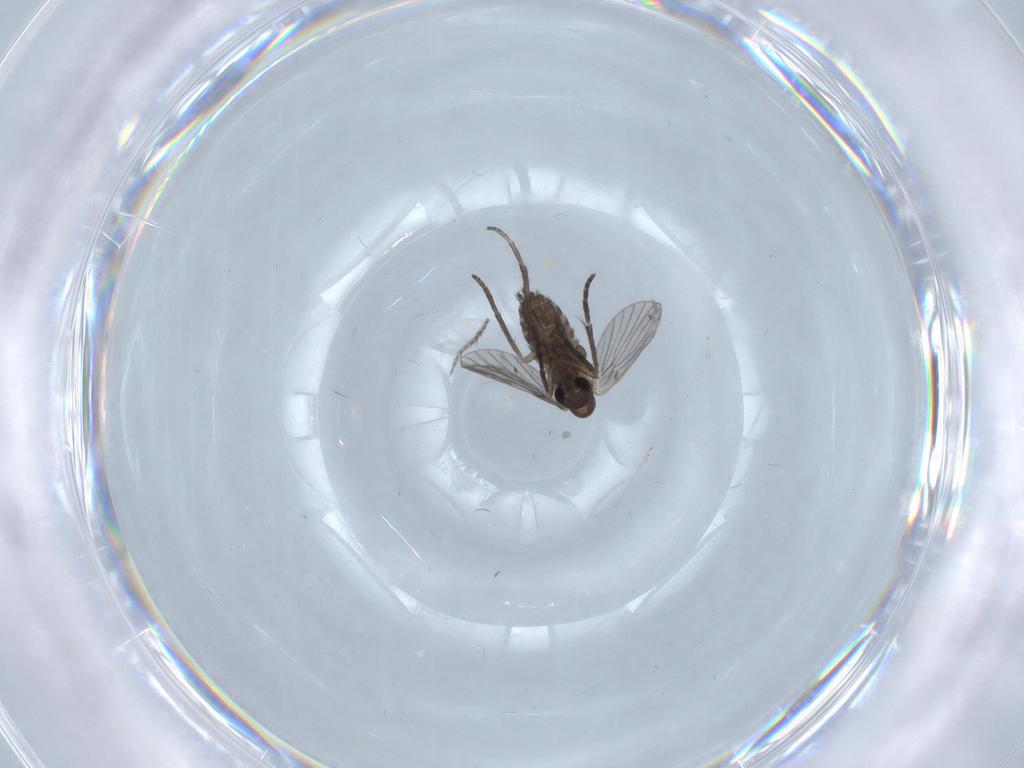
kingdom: Animalia
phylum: Arthropoda
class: Insecta
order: Diptera
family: Cecidomyiidae
